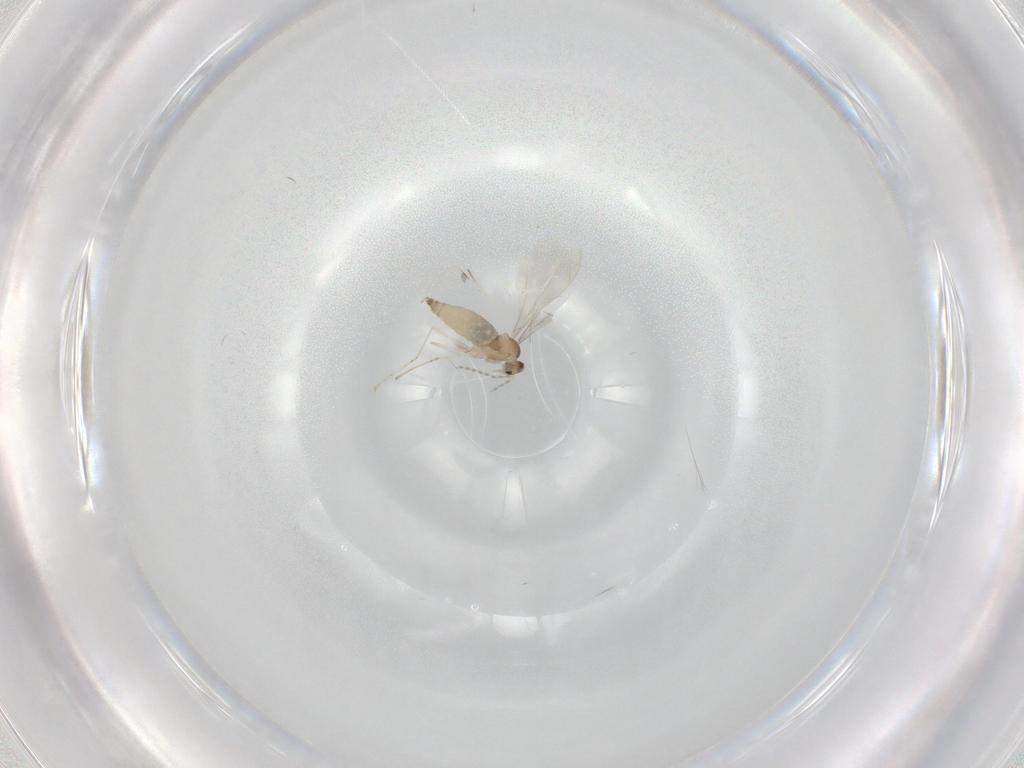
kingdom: Animalia
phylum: Arthropoda
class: Insecta
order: Diptera
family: Cecidomyiidae
